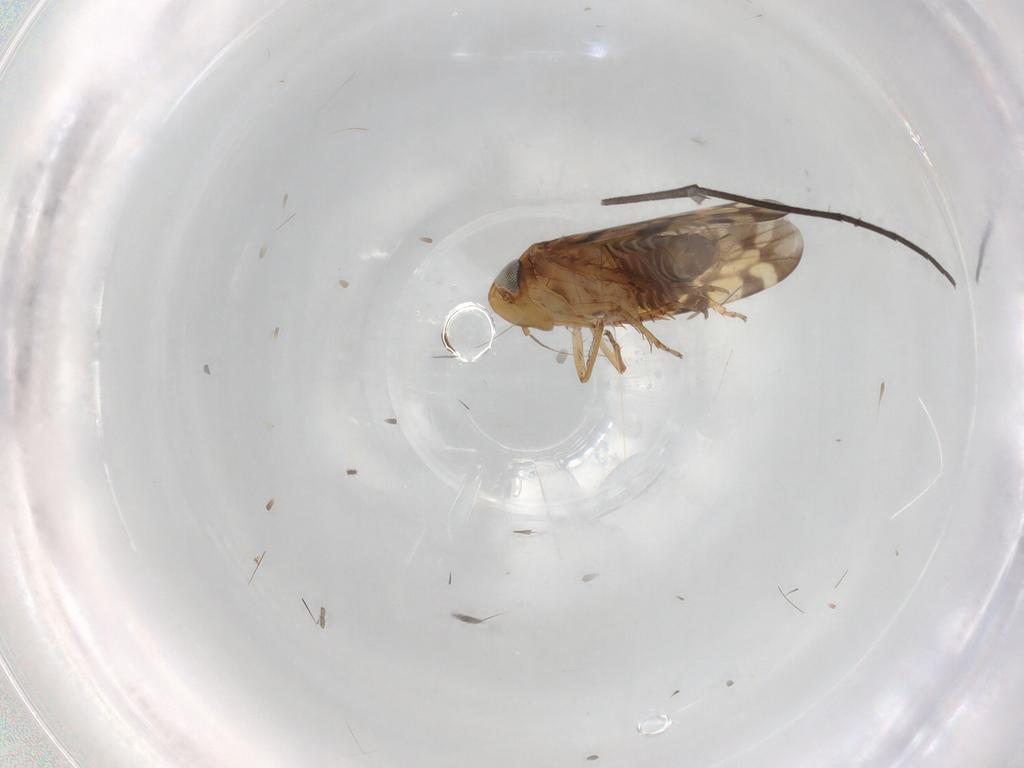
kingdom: Animalia
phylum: Arthropoda
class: Insecta
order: Hemiptera
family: Cicadellidae
